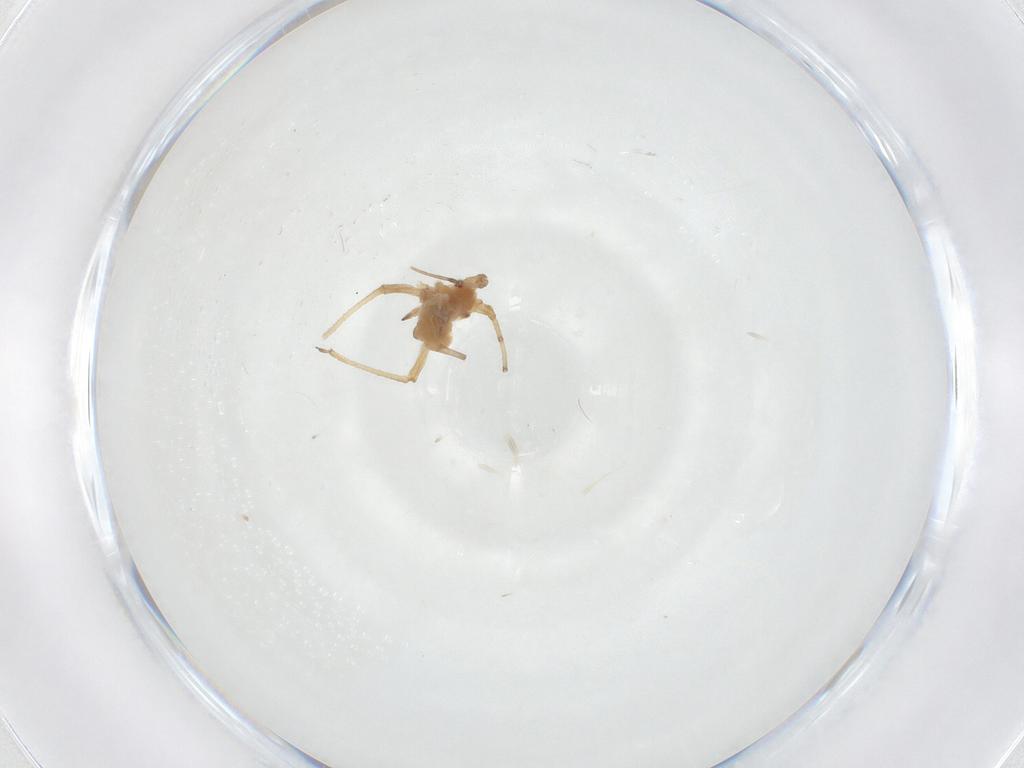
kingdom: Animalia
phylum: Arthropoda
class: Insecta
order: Hemiptera
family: Aphididae
